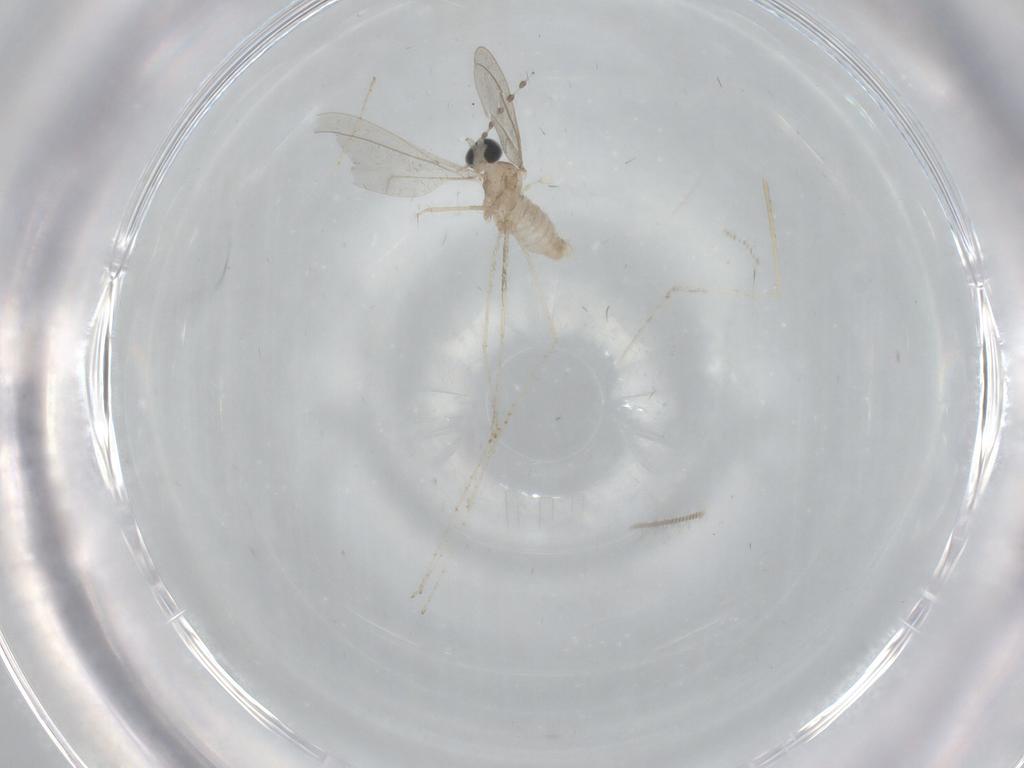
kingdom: Animalia
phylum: Arthropoda
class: Insecta
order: Diptera
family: Cecidomyiidae
